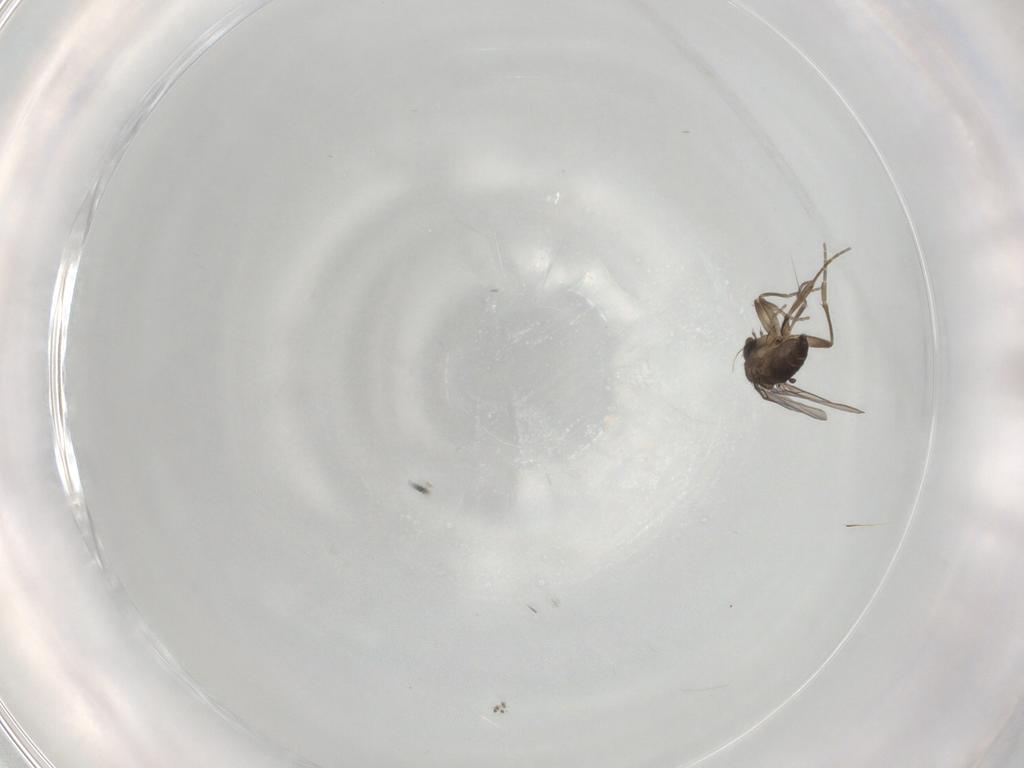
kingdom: Animalia
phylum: Arthropoda
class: Insecta
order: Diptera
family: Phoridae
